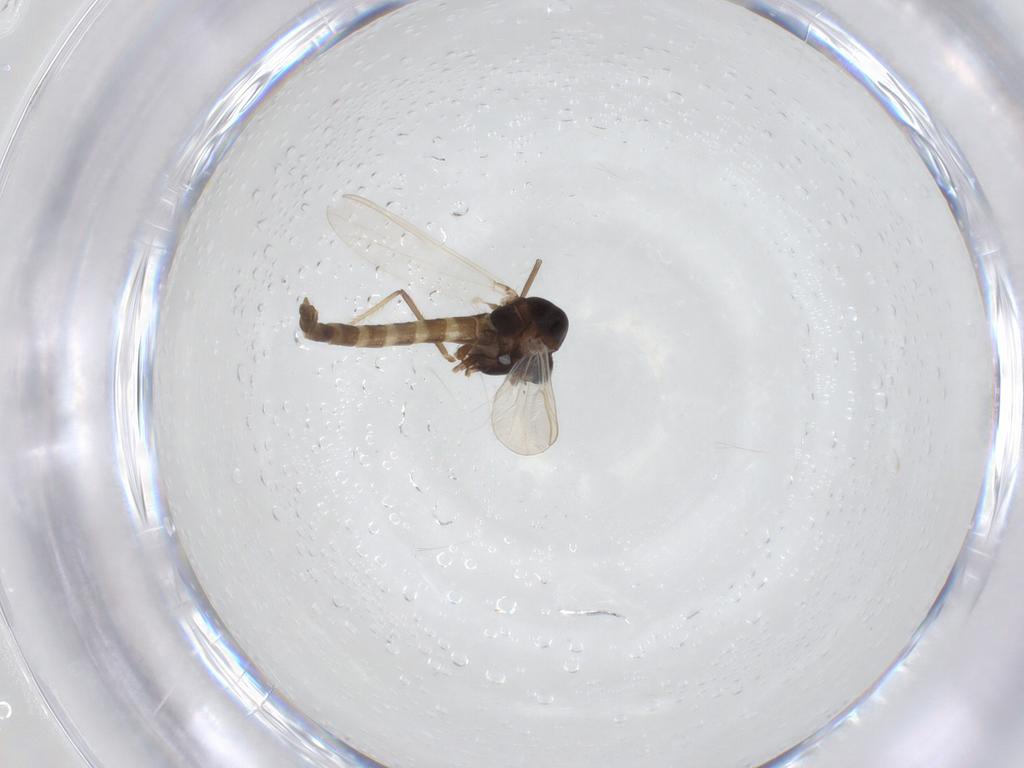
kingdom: Animalia
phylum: Arthropoda
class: Insecta
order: Diptera
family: Chironomidae
